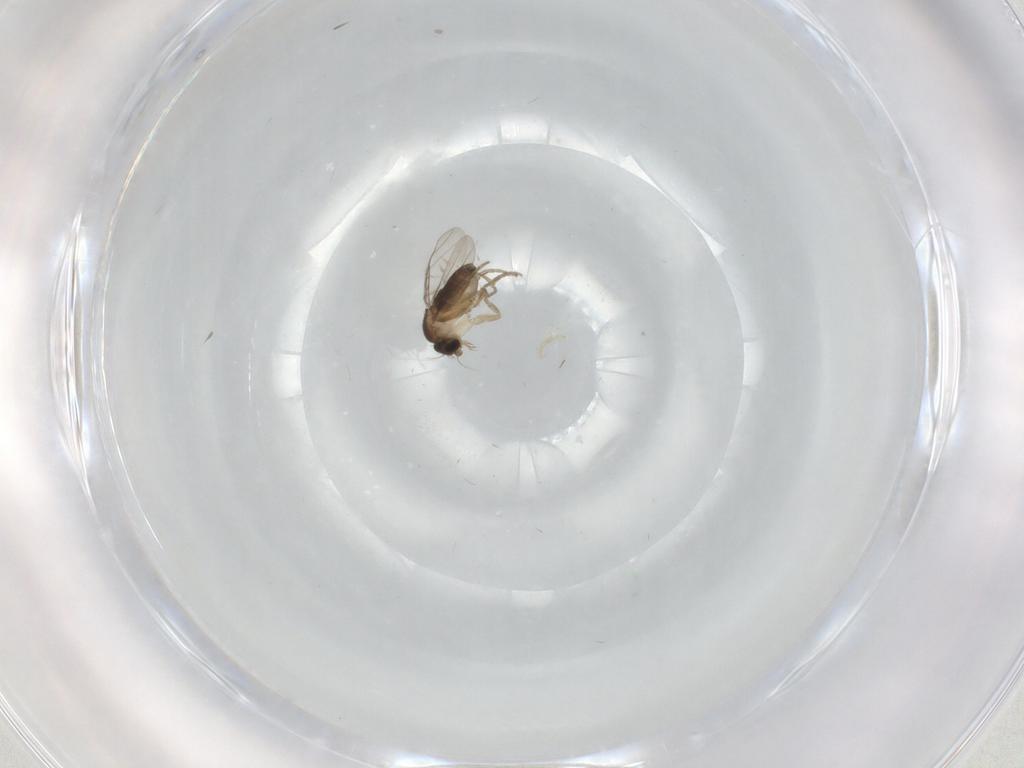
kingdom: Animalia
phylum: Arthropoda
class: Insecta
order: Diptera
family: Phoridae
